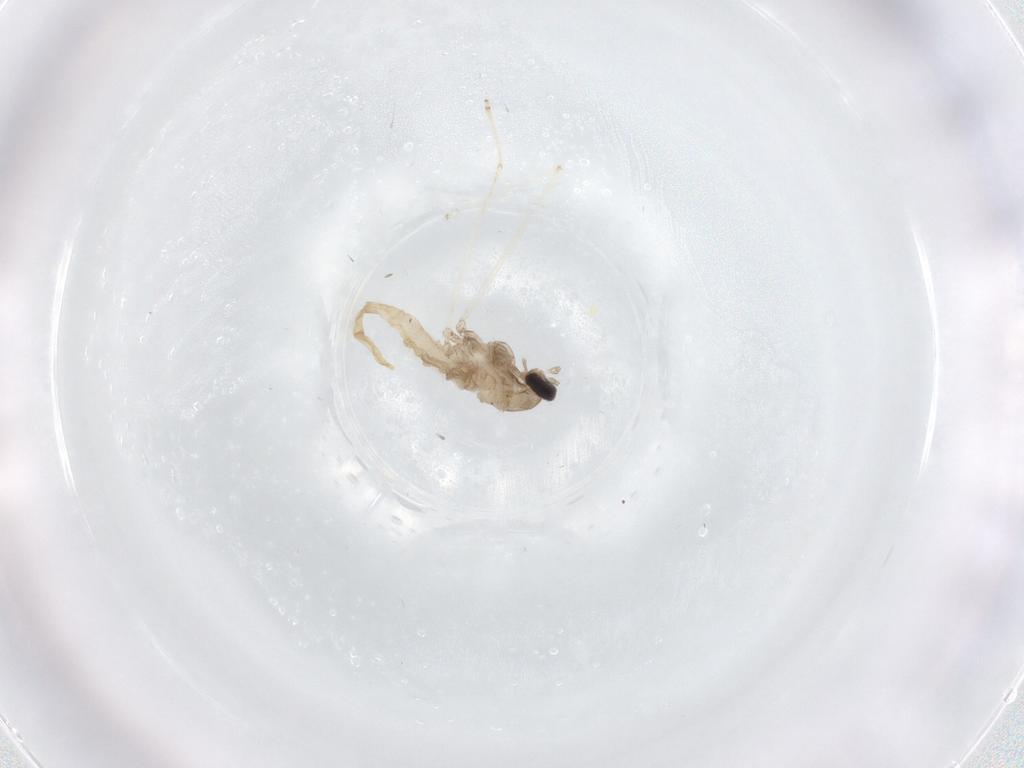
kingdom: Animalia
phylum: Arthropoda
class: Insecta
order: Diptera
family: Cecidomyiidae
